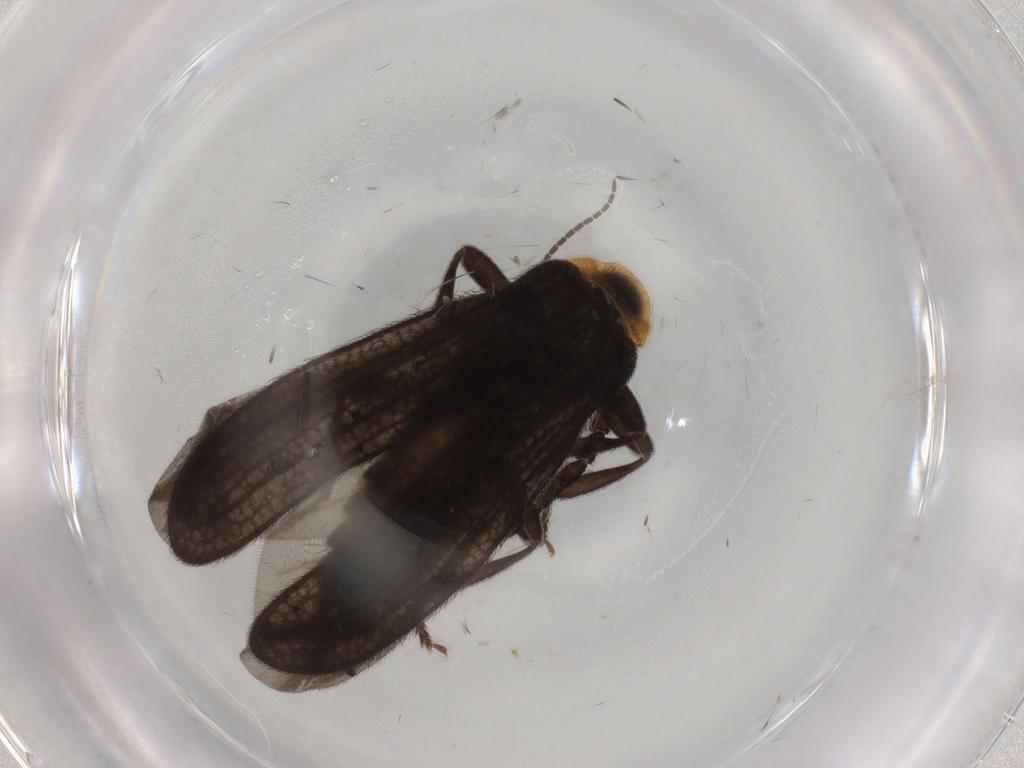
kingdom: Animalia
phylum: Arthropoda
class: Insecta
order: Coleoptera
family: Lycidae
